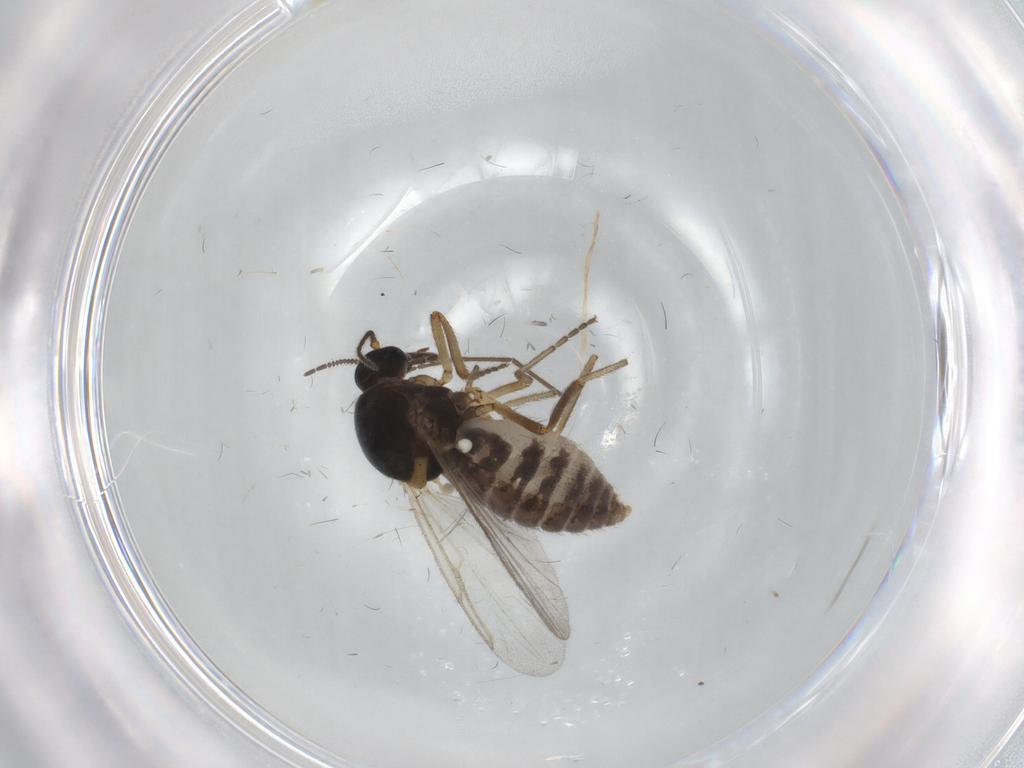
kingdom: Animalia
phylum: Arthropoda
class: Insecta
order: Diptera
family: Ceratopogonidae
